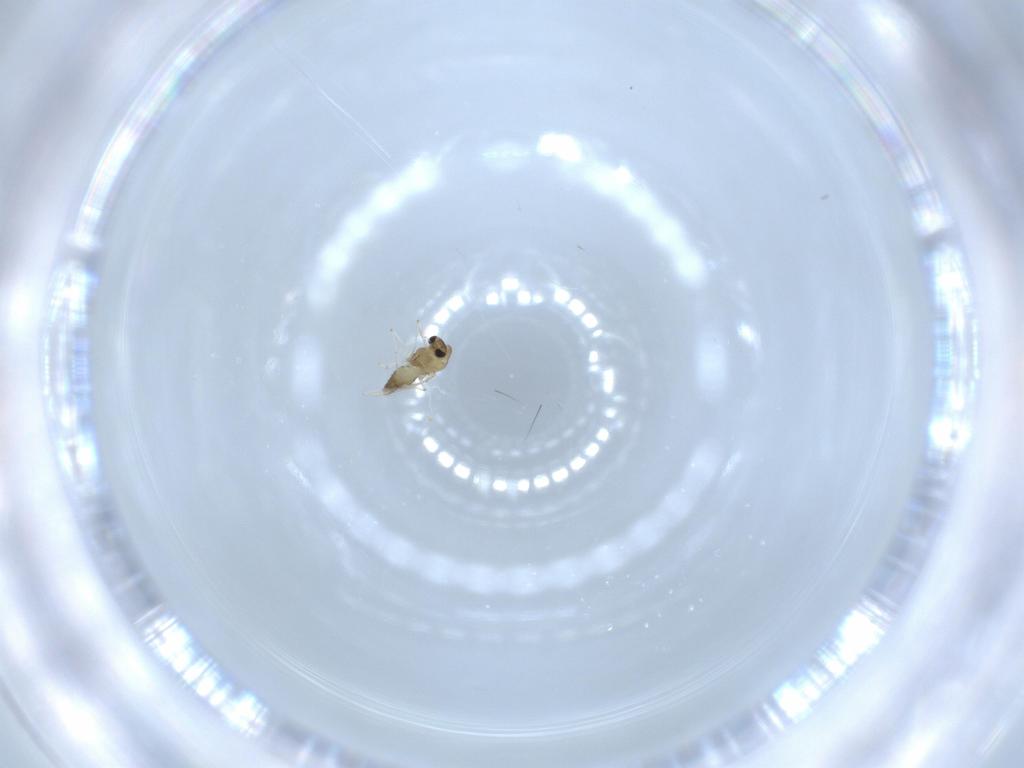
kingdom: Animalia
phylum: Arthropoda
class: Insecta
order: Diptera
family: Chironomidae
